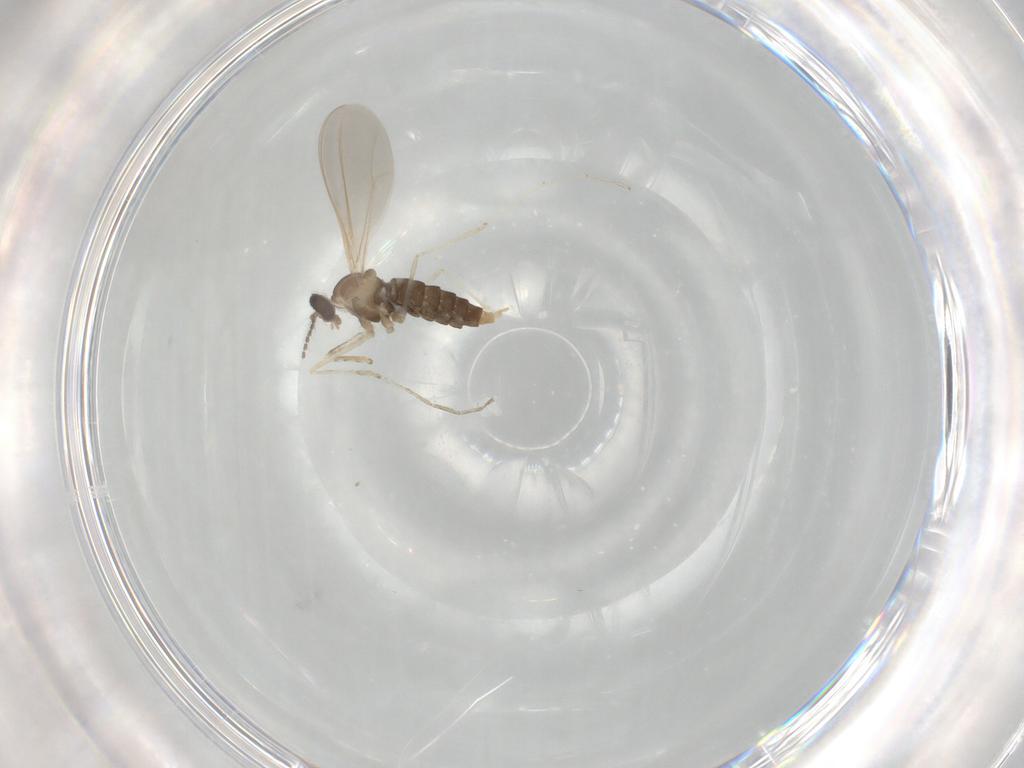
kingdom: Animalia
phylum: Arthropoda
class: Insecta
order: Diptera
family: Cecidomyiidae
